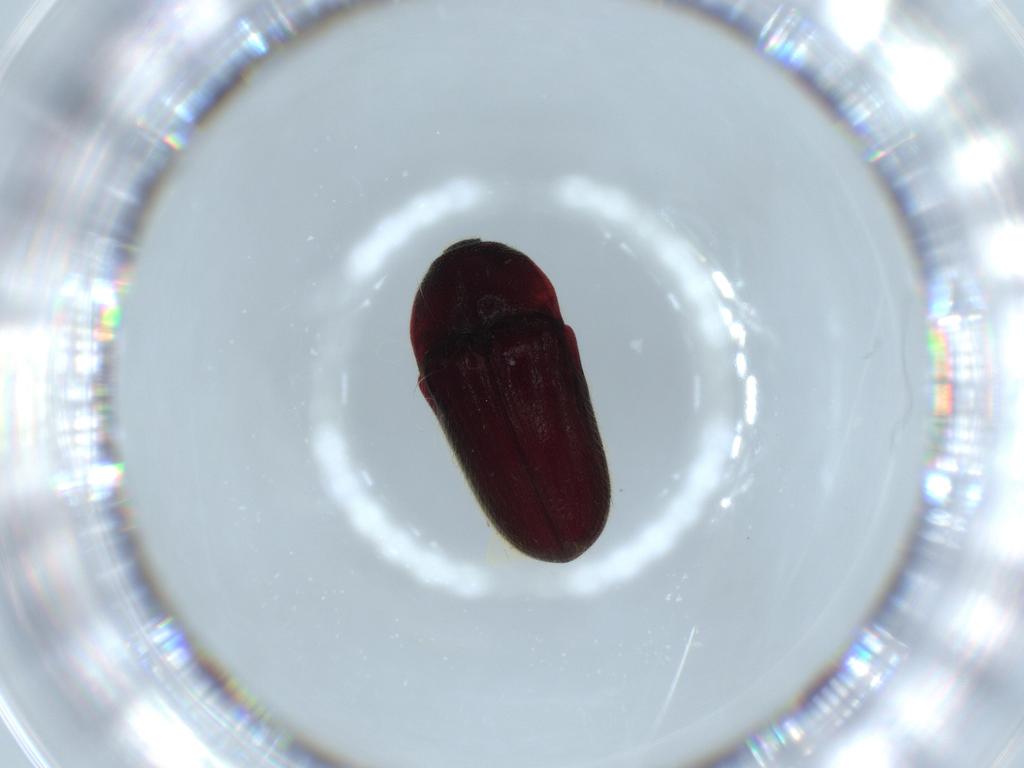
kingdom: Animalia
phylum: Arthropoda
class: Insecta
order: Coleoptera
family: Throscidae
